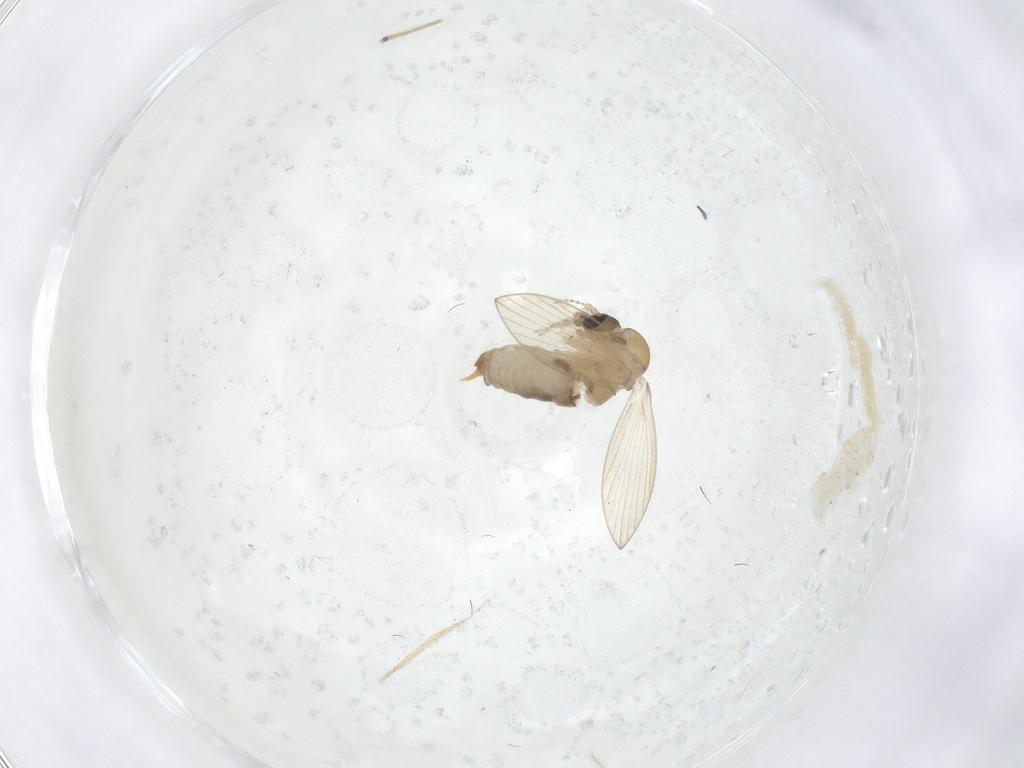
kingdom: Animalia
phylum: Arthropoda
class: Insecta
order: Diptera
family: Psychodidae
